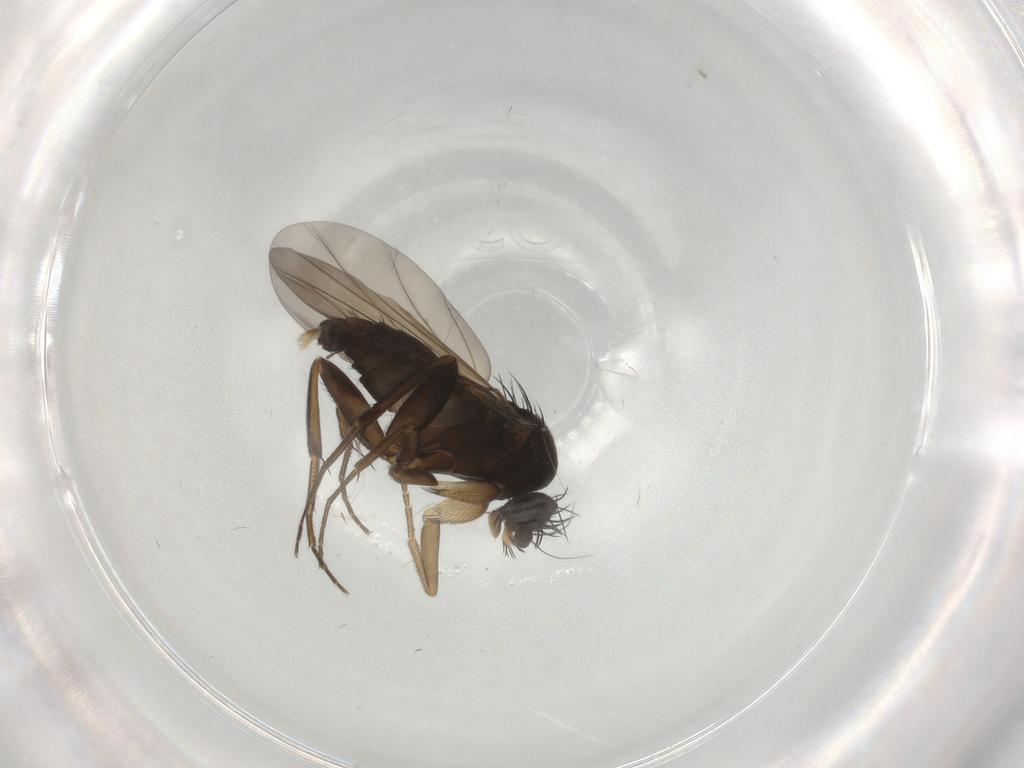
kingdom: Animalia
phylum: Arthropoda
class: Insecta
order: Diptera
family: Phoridae
